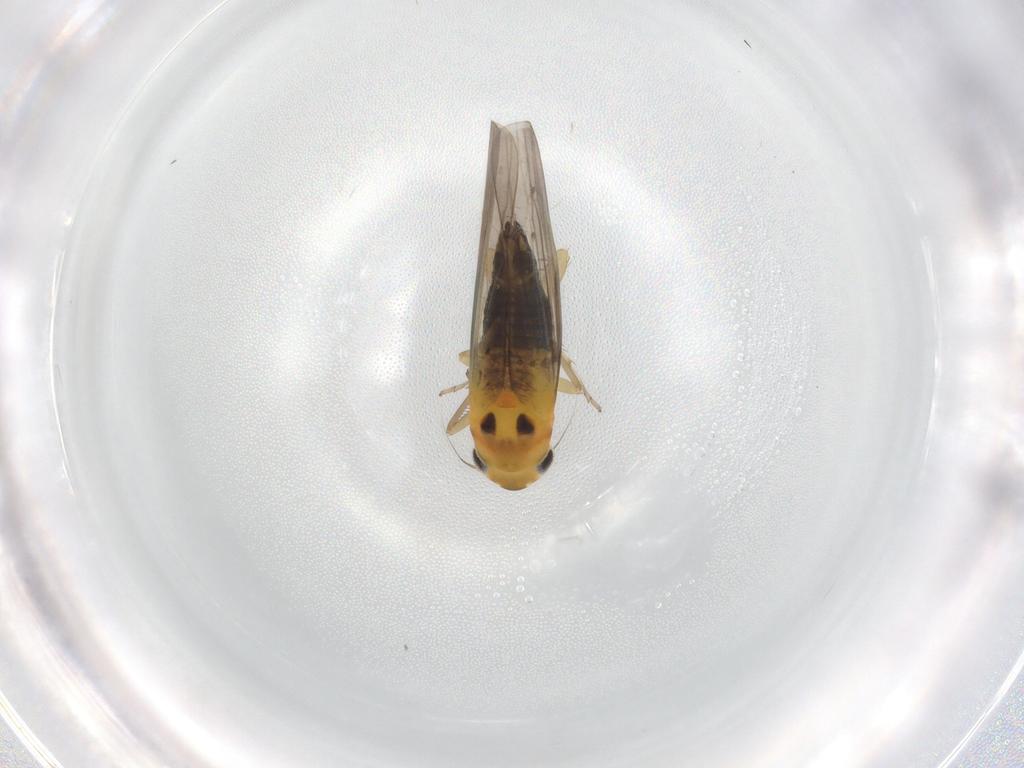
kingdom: Animalia
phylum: Arthropoda
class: Insecta
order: Hemiptera
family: Cicadellidae
